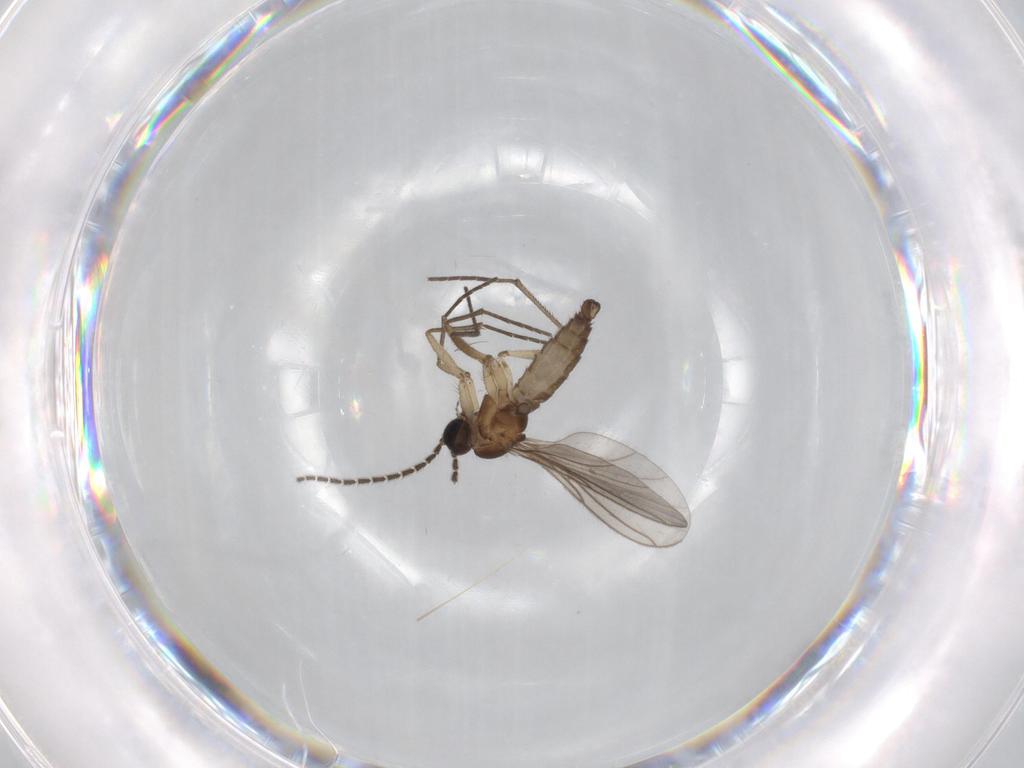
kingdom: Animalia
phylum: Arthropoda
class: Insecta
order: Diptera
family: Sciaridae
